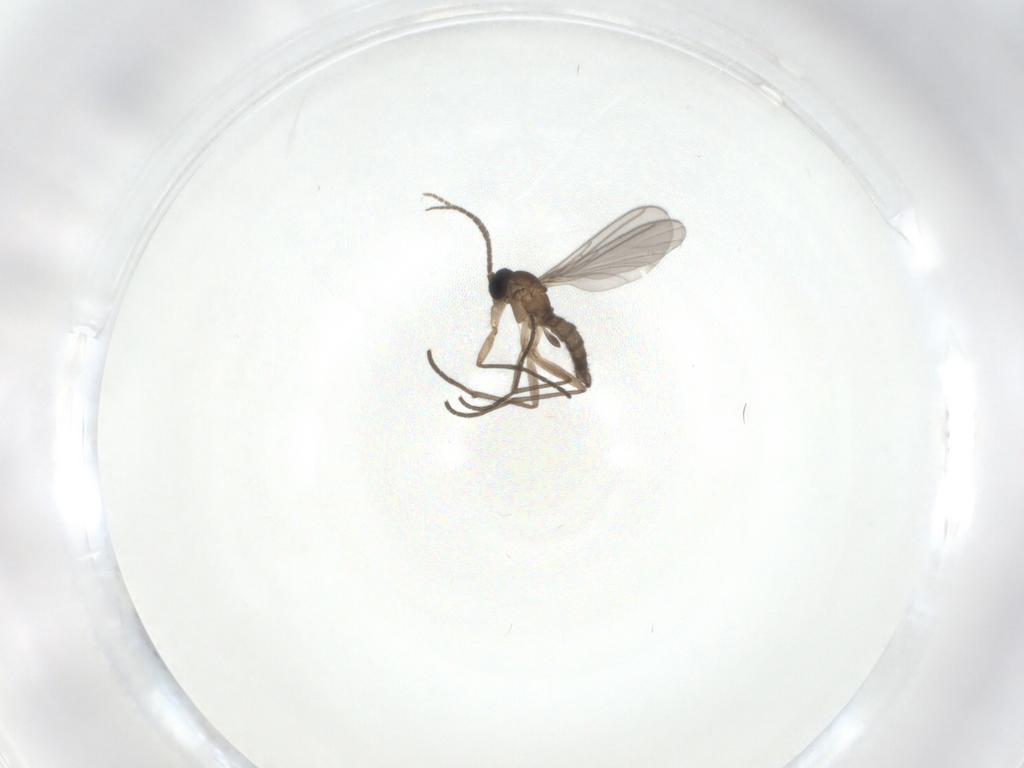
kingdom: Animalia
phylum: Arthropoda
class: Insecta
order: Diptera
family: Sciaridae
